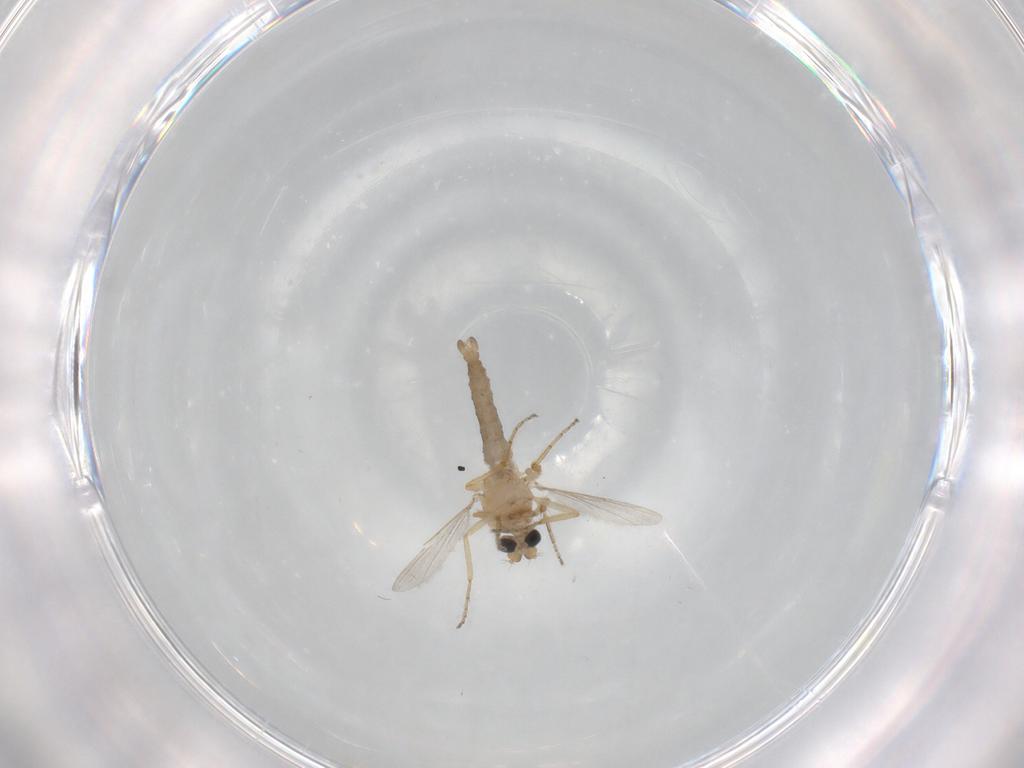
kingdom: Animalia
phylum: Arthropoda
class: Insecta
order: Diptera
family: Ceratopogonidae
